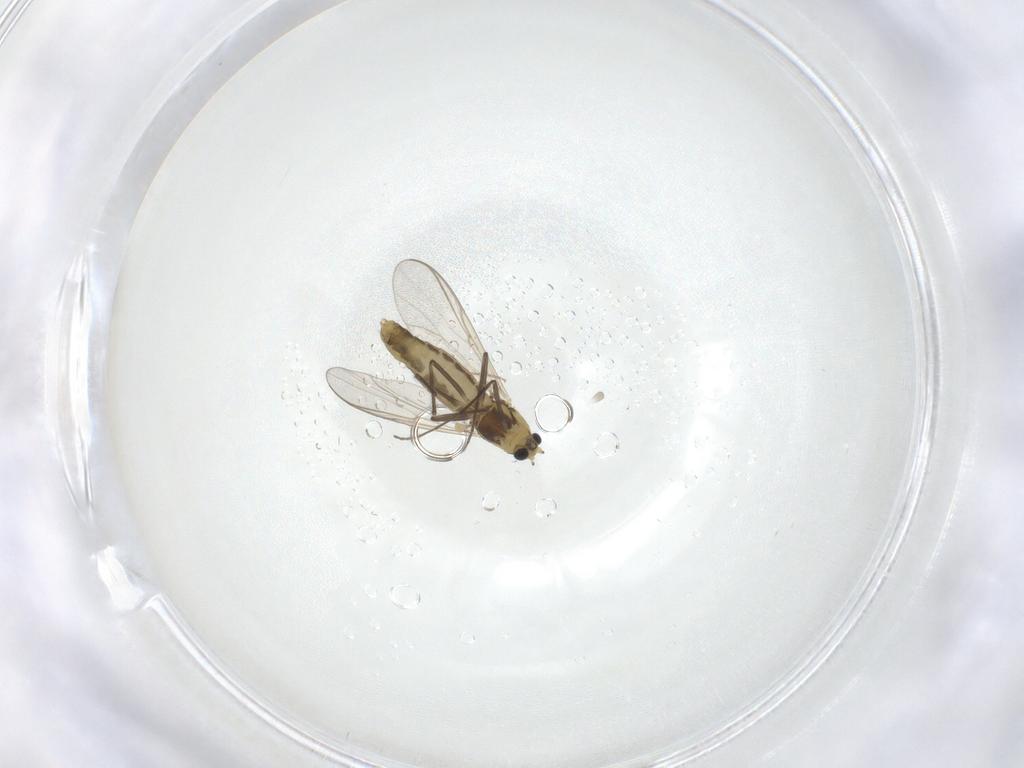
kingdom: Animalia
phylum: Arthropoda
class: Insecta
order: Diptera
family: Chironomidae
